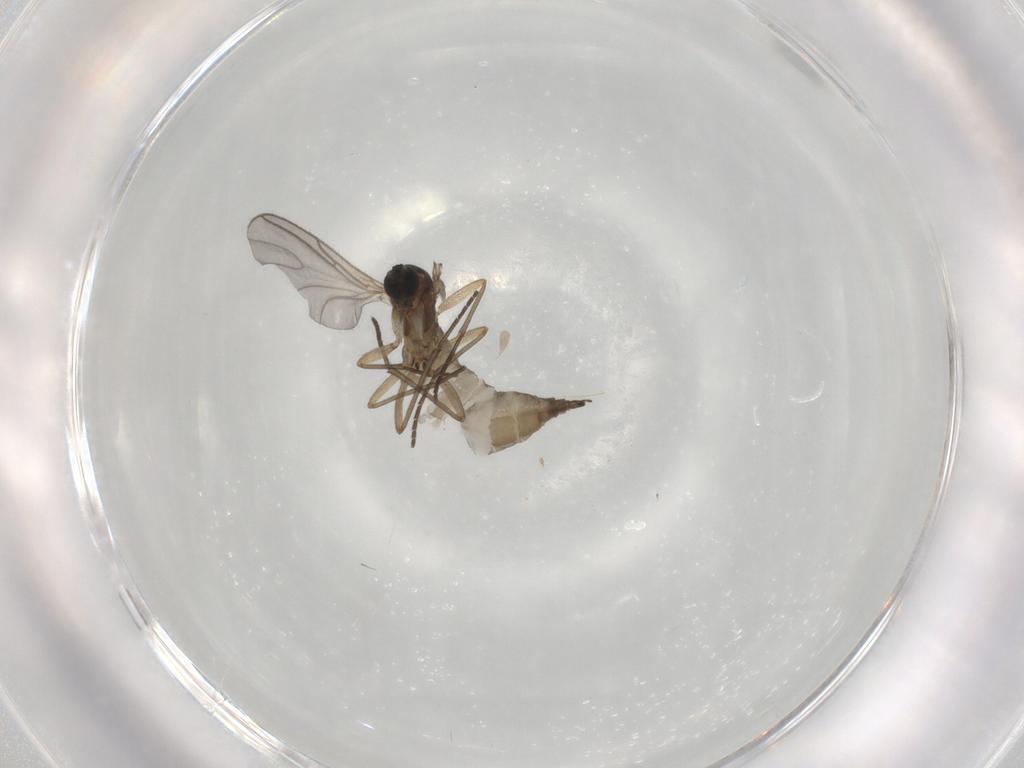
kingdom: Animalia
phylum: Arthropoda
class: Insecta
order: Diptera
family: Sciaridae
